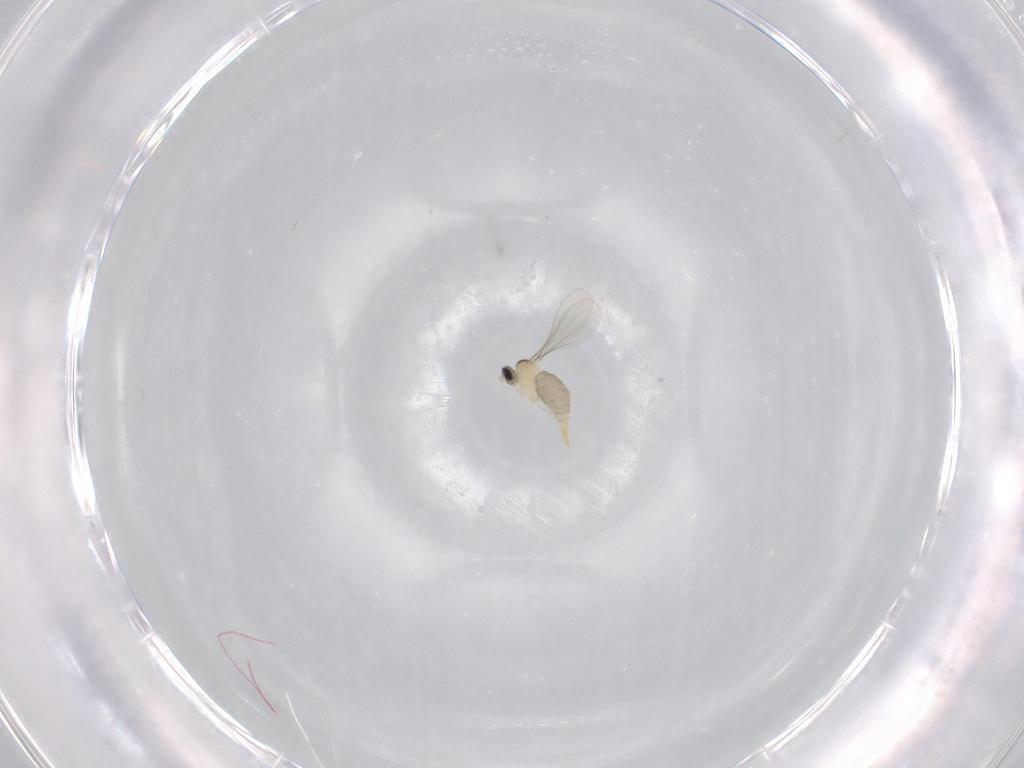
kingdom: Animalia
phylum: Arthropoda
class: Insecta
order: Diptera
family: Ceratopogonidae
